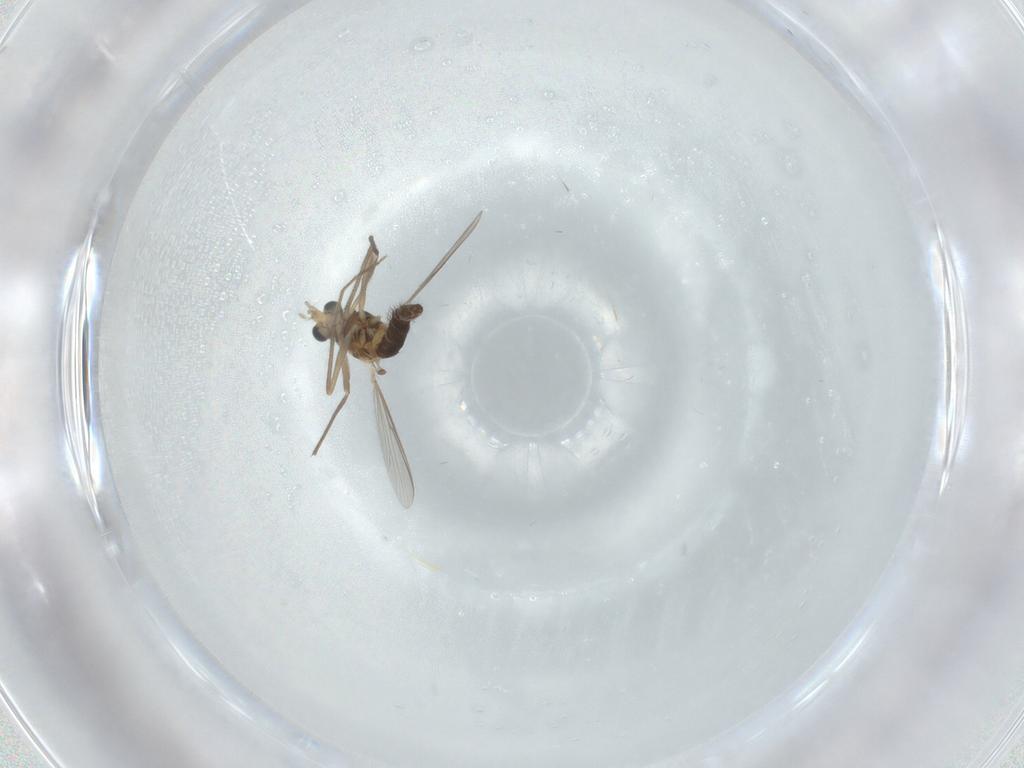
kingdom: Animalia
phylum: Arthropoda
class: Insecta
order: Diptera
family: Chironomidae
